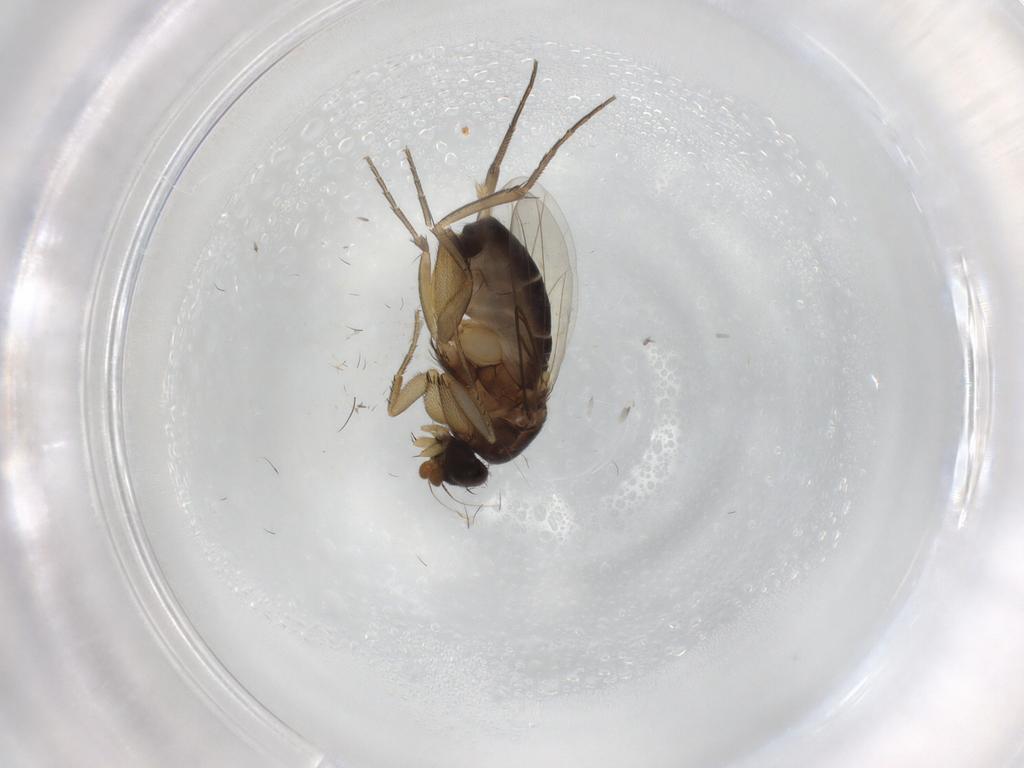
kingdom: Animalia
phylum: Arthropoda
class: Insecta
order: Diptera
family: Phoridae
